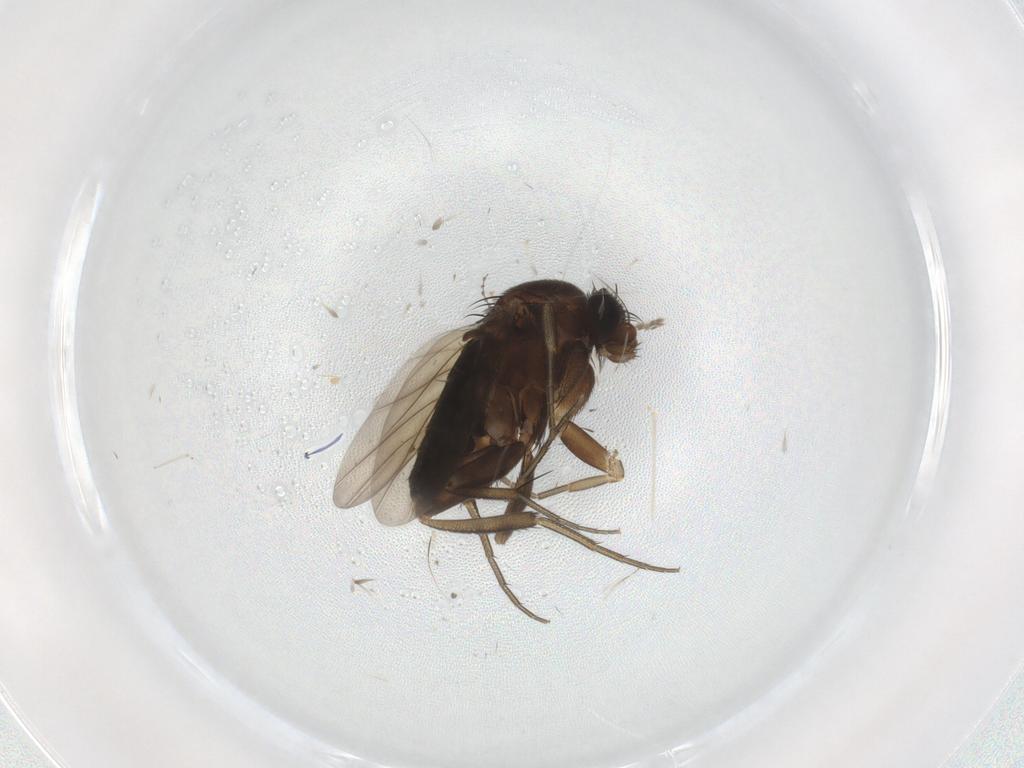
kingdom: Animalia
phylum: Arthropoda
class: Insecta
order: Diptera
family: Phoridae
